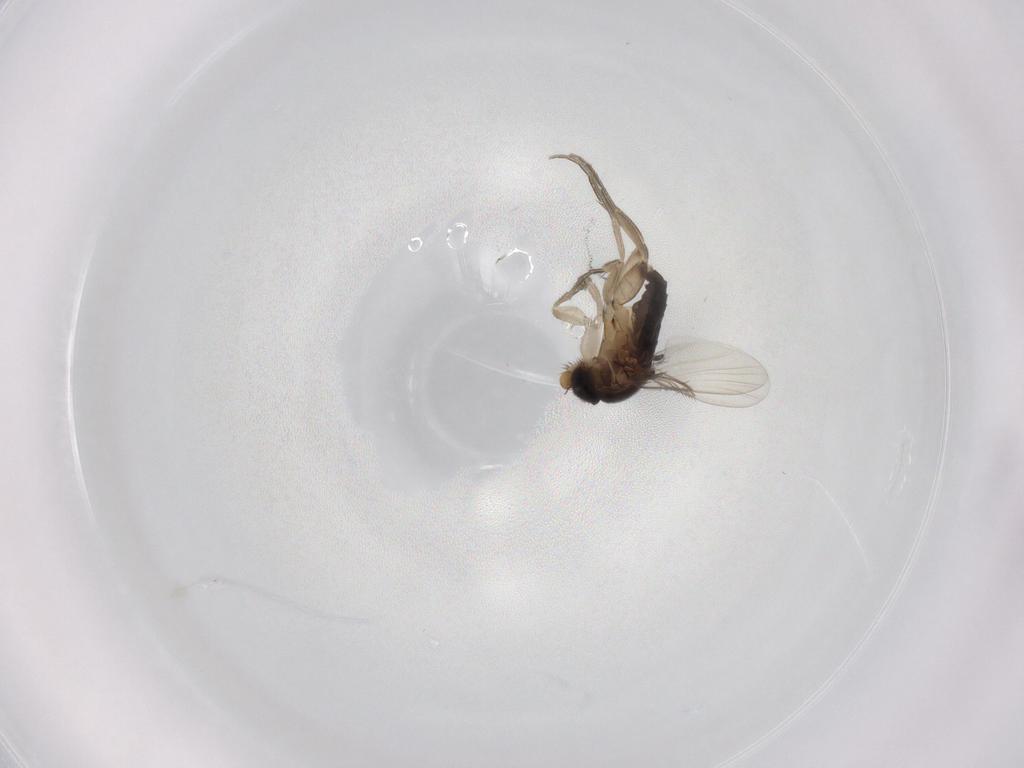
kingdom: Animalia
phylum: Arthropoda
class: Insecta
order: Diptera
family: Phoridae
